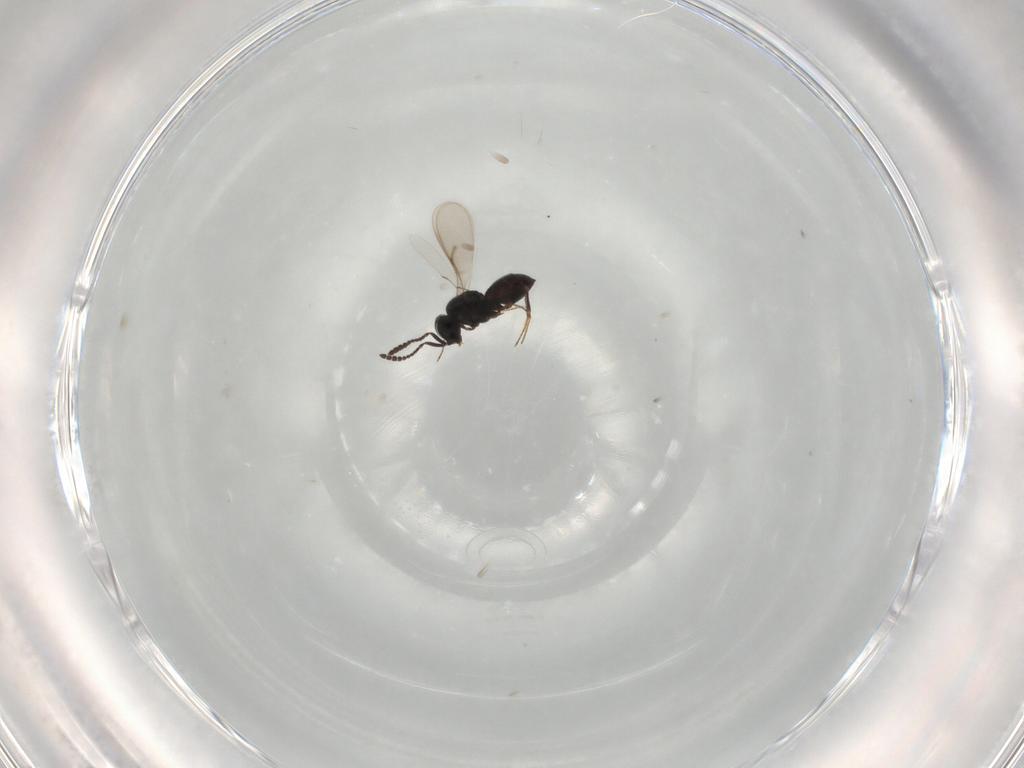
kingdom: Animalia
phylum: Arthropoda
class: Insecta
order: Hymenoptera
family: Scelionidae
